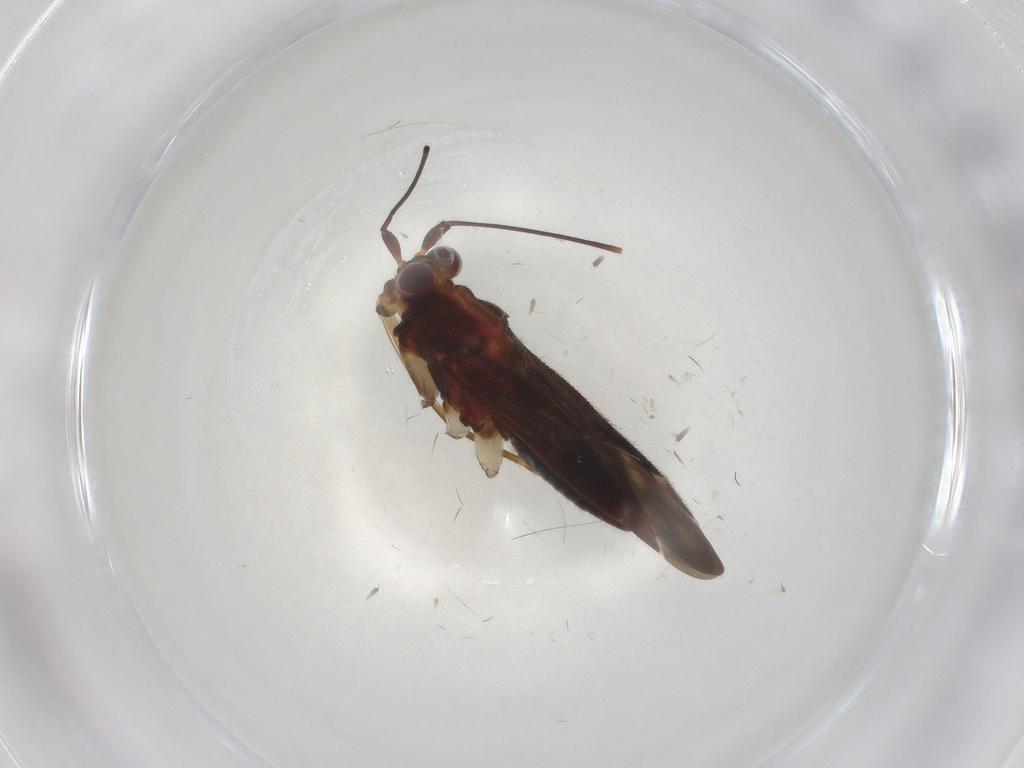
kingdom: Animalia
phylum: Arthropoda
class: Insecta
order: Hemiptera
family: Miridae
